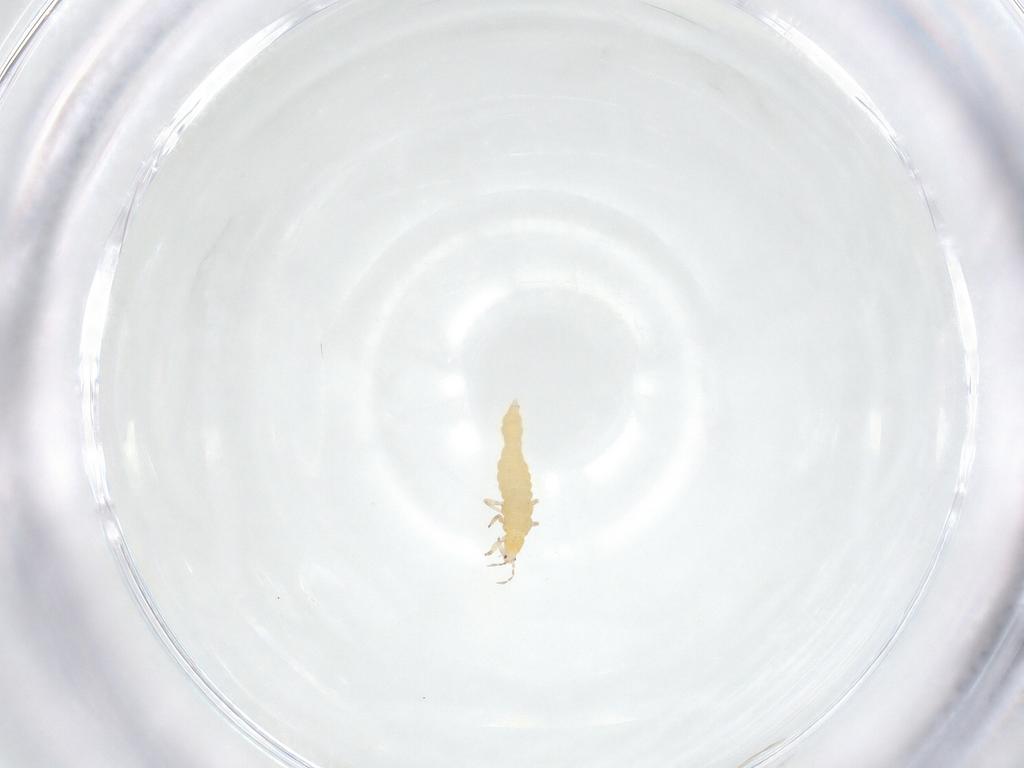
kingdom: Animalia
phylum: Arthropoda
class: Insecta
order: Thysanoptera
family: Aeolothripidae
